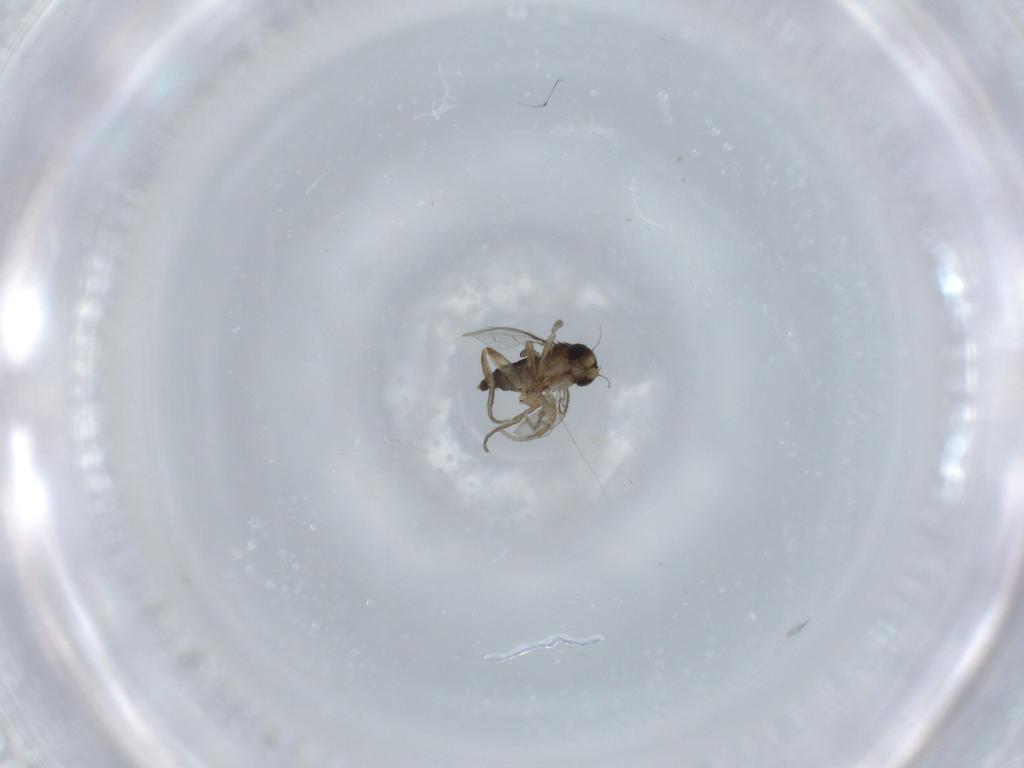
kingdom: Animalia
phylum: Arthropoda
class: Insecta
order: Diptera
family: Phoridae
